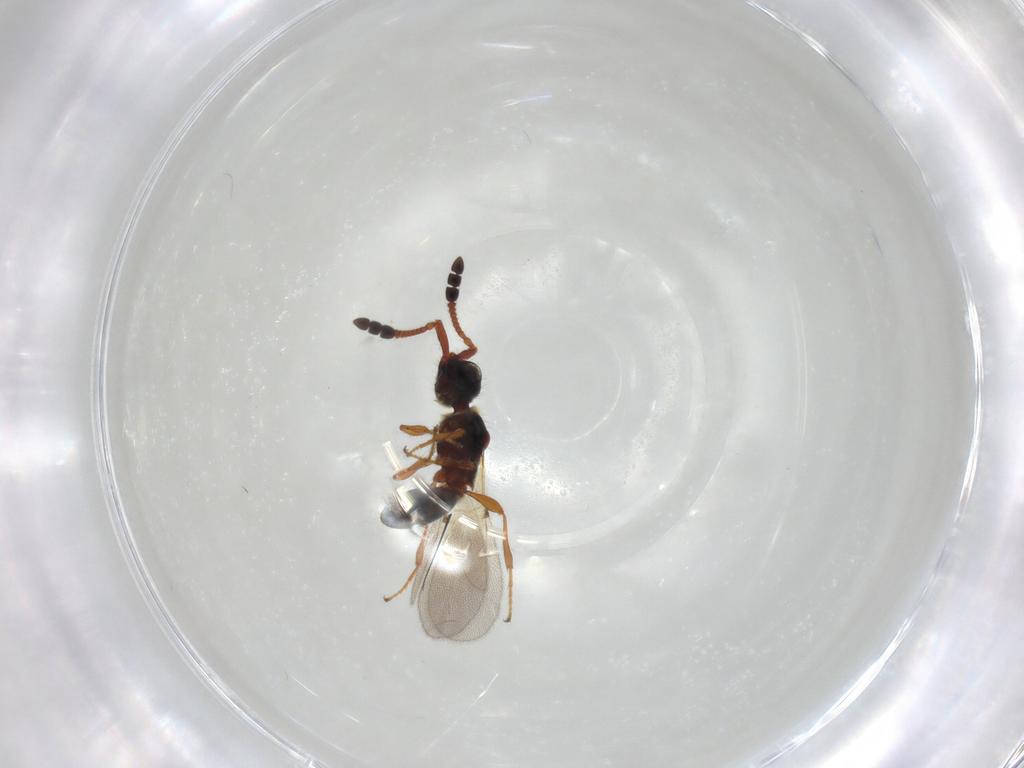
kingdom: Animalia
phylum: Arthropoda
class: Insecta
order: Hymenoptera
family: Diapriidae
